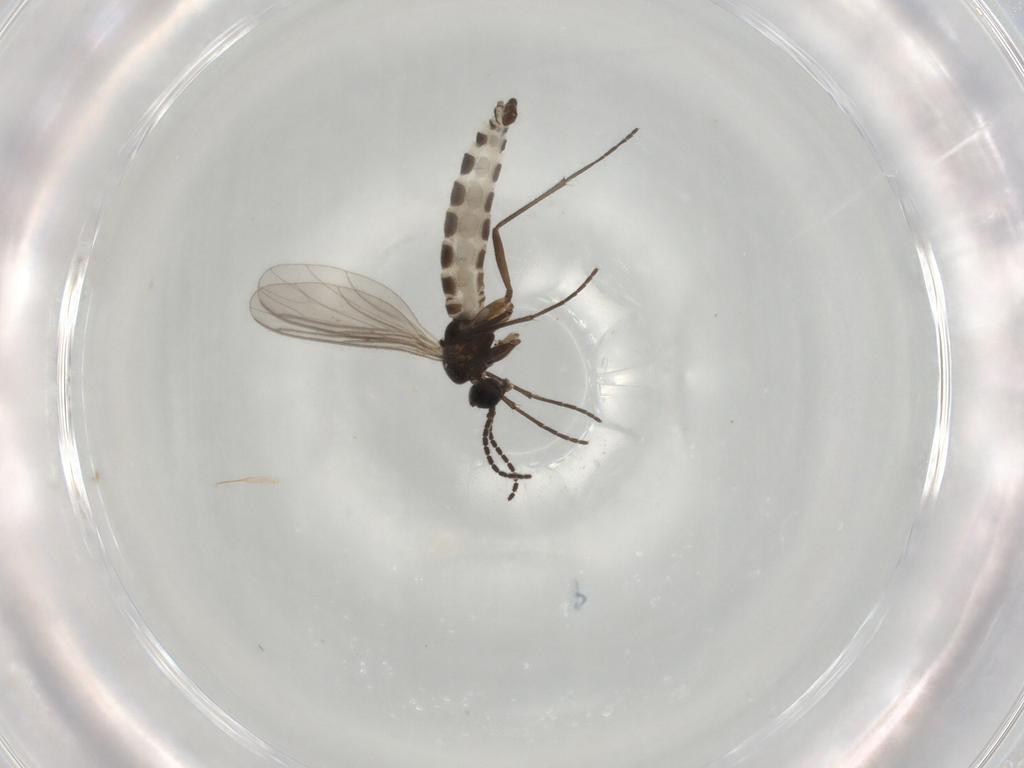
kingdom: Animalia
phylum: Arthropoda
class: Insecta
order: Diptera
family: Sciaridae
